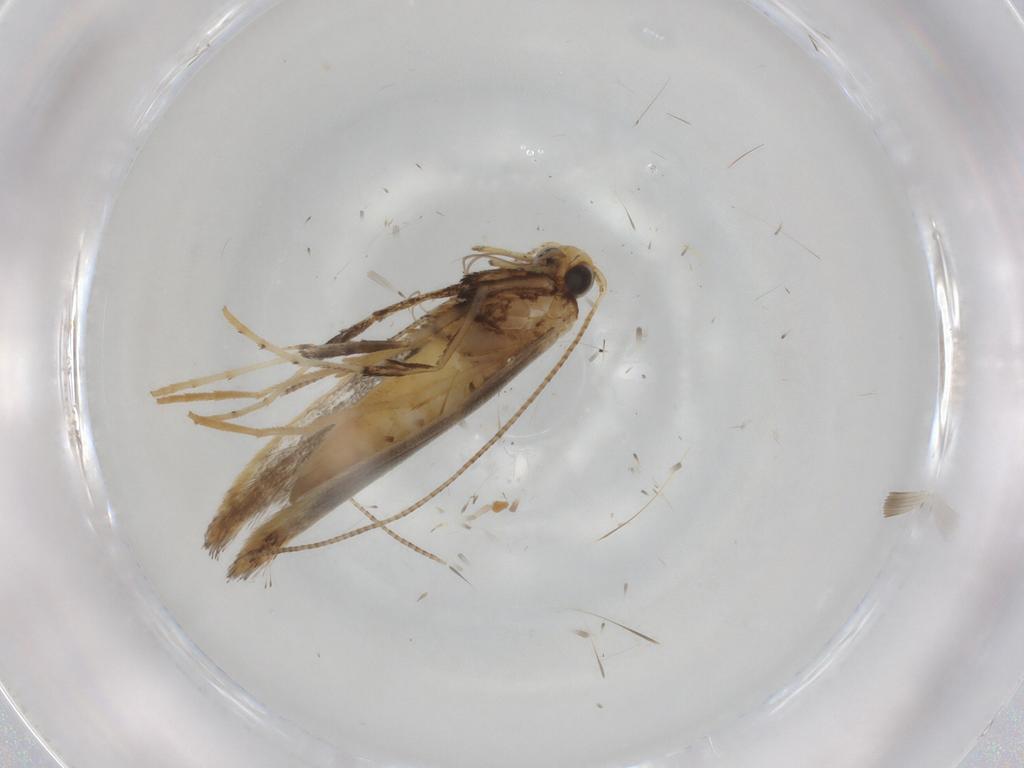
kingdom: Animalia
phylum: Arthropoda
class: Insecta
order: Lepidoptera
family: Gracillariidae
